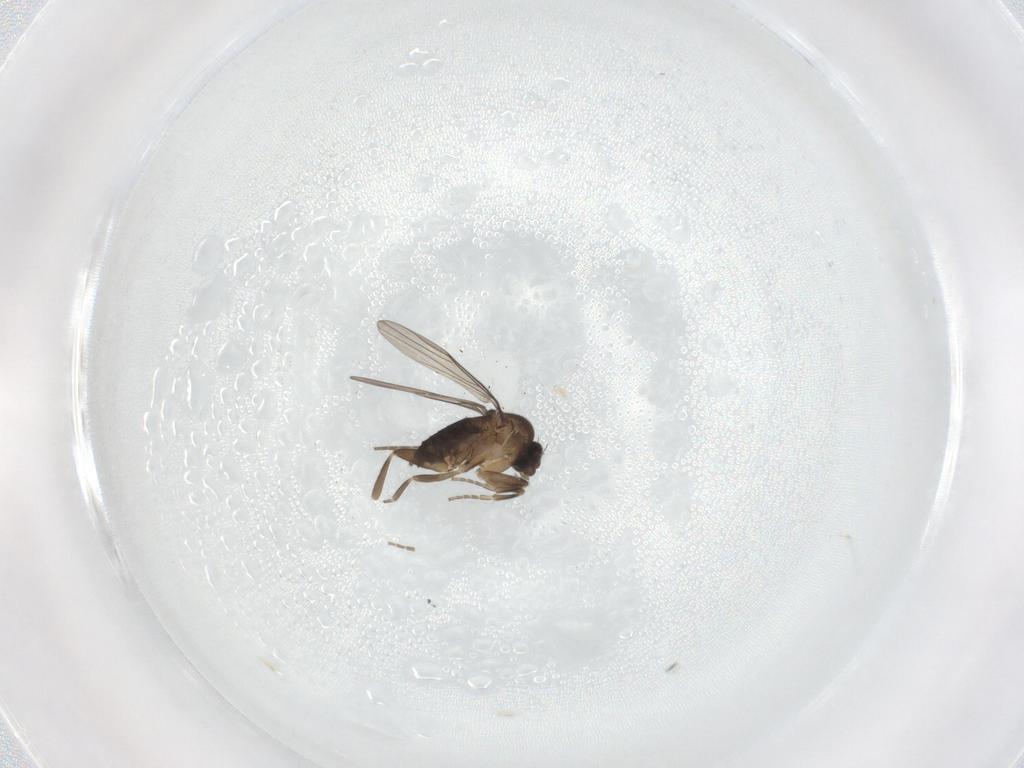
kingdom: Animalia
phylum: Arthropoda
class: Insecta
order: Diptera
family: Chironomidae
